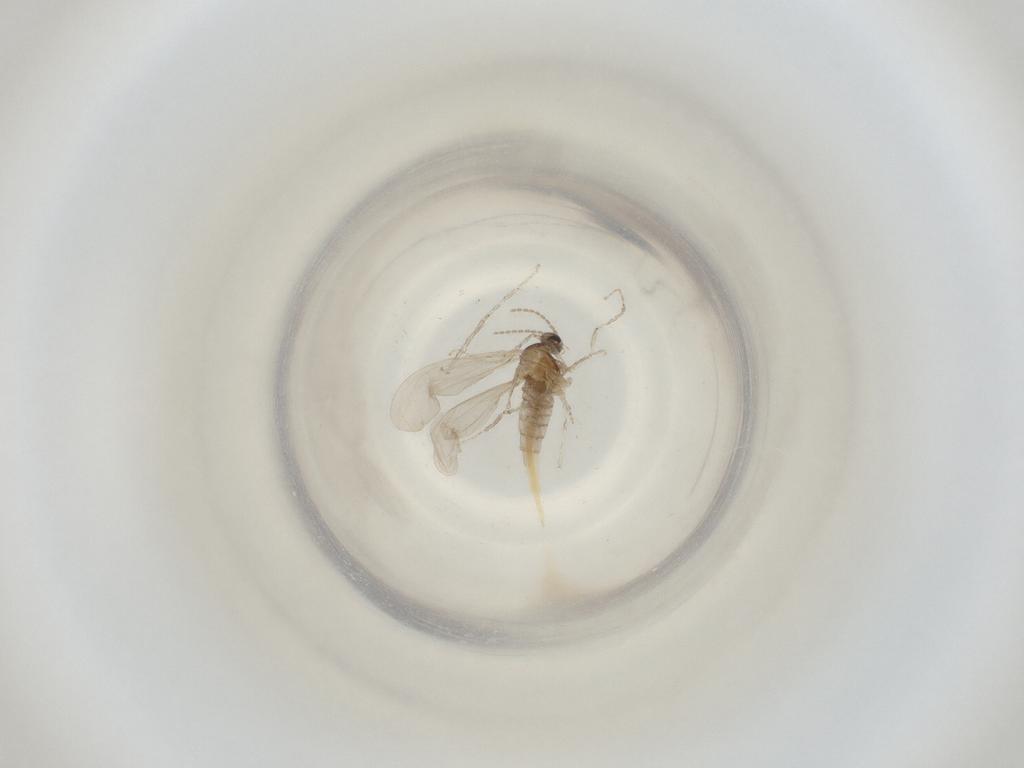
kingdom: Animalia
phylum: Arthropoda
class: Insecta
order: Diptera
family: Cecidomyiidae
